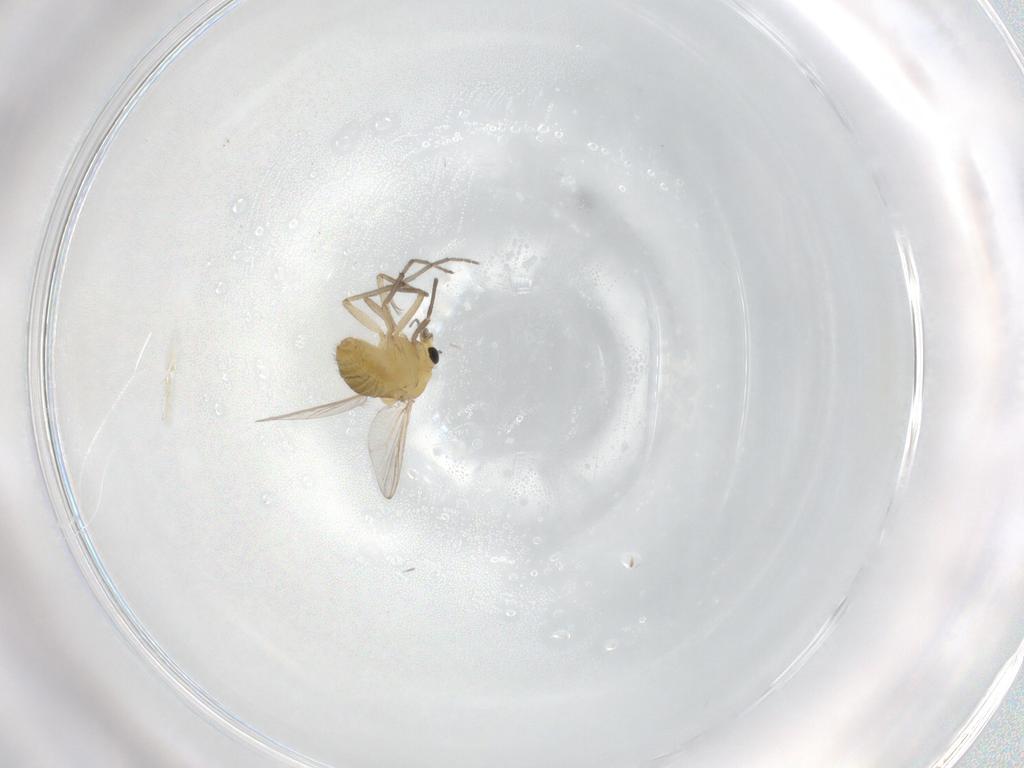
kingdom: Animalia
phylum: Arthropoda
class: Insecta
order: Diptera
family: Chironomidae
